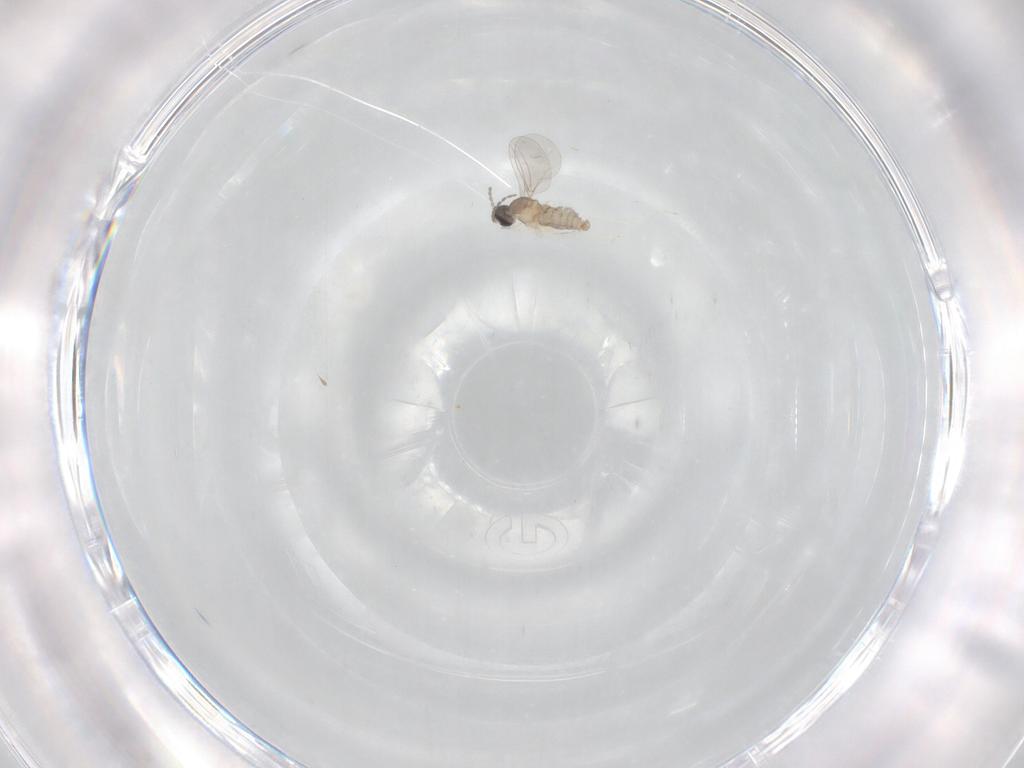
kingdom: Animalia
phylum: Arthropoda
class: Insecta
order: Diptera
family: Cecidomyiidae
